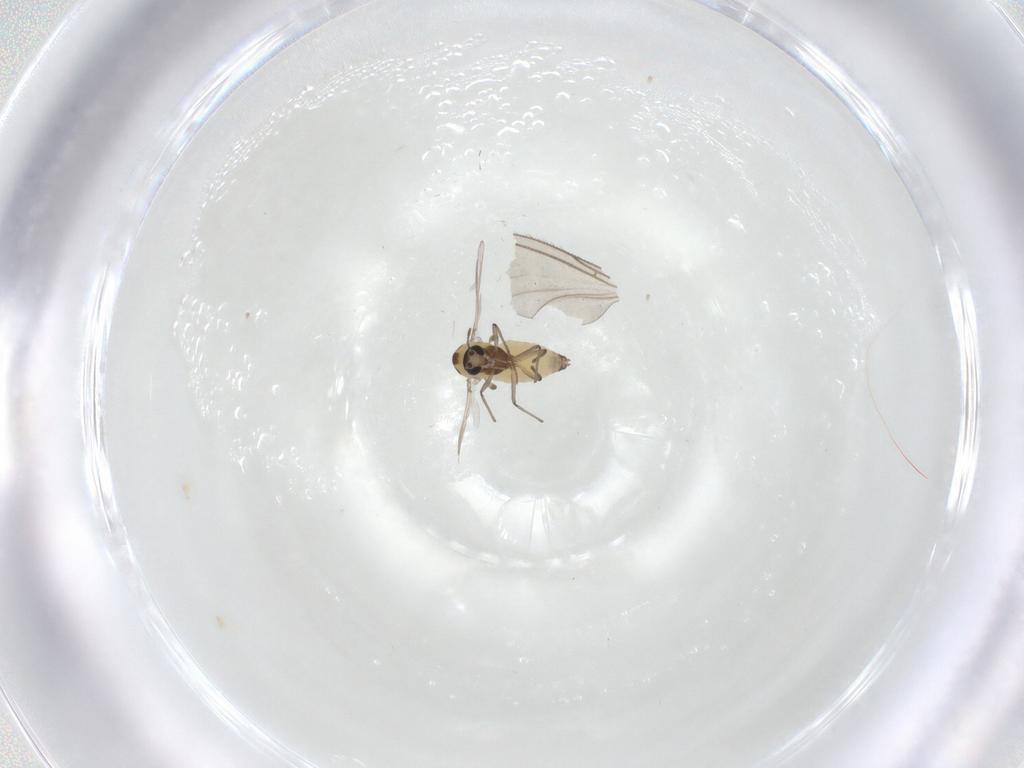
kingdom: Animalia
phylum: Arthropoda
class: Insecta
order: Diptera
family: Sciaridae
